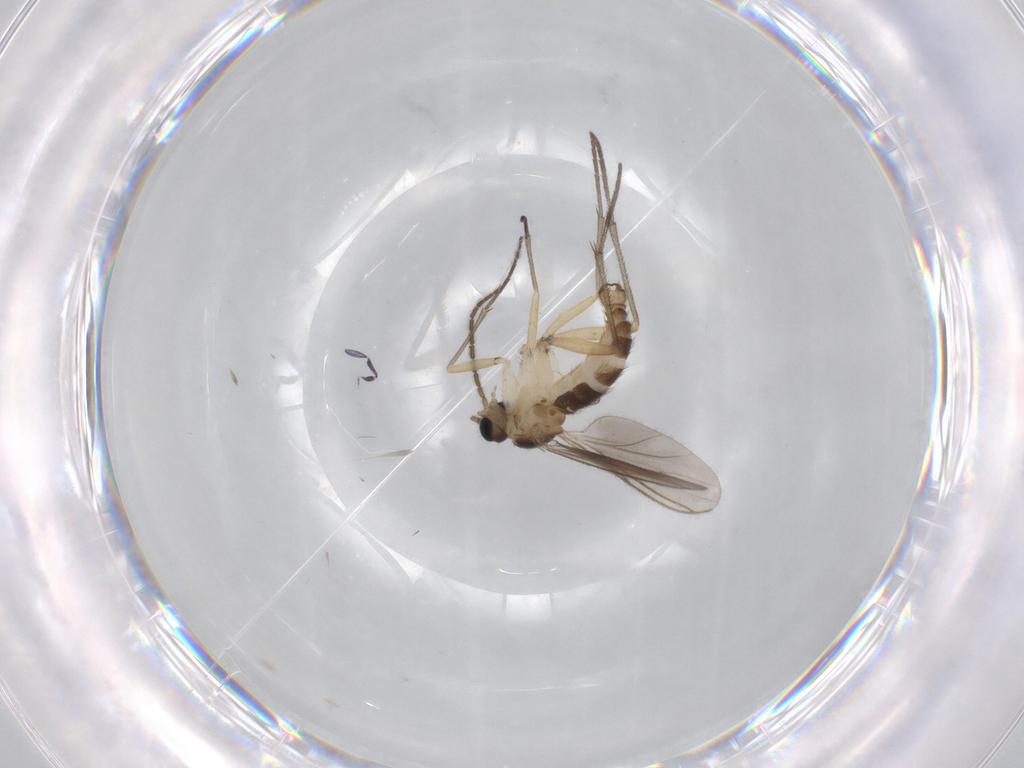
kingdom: Animalia
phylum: Arthropoda
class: Insecta
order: Diptera
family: Sciaridae
